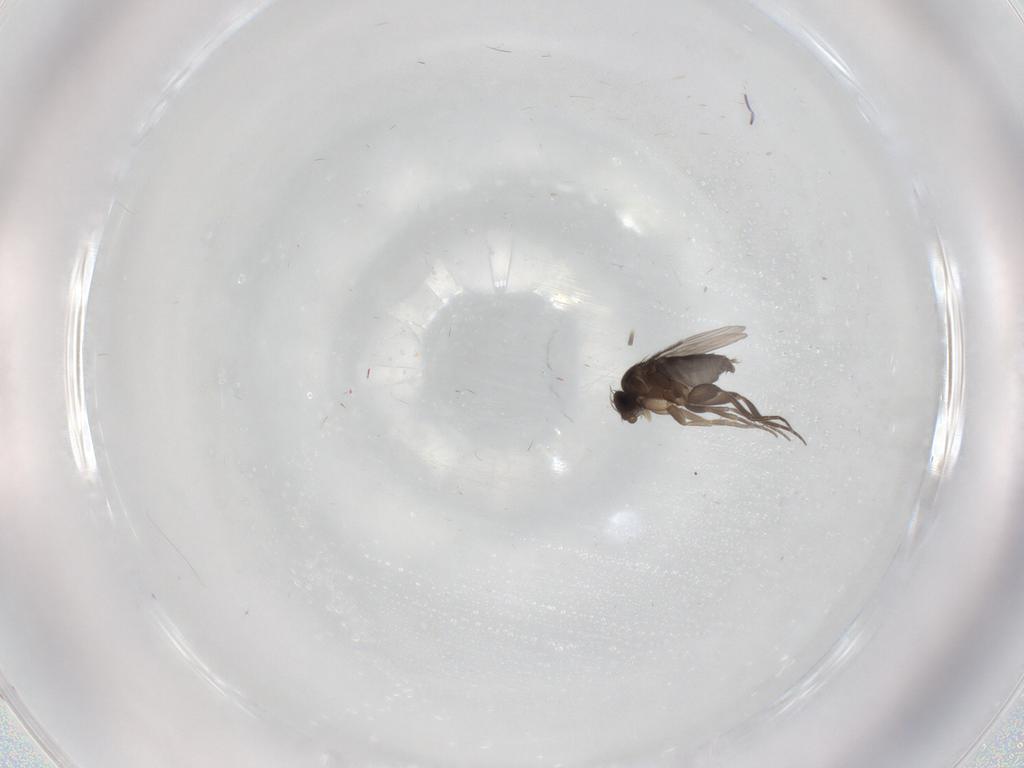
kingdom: Animalia
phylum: Arthropoda
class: Insecta
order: Diptera
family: Phoridae
